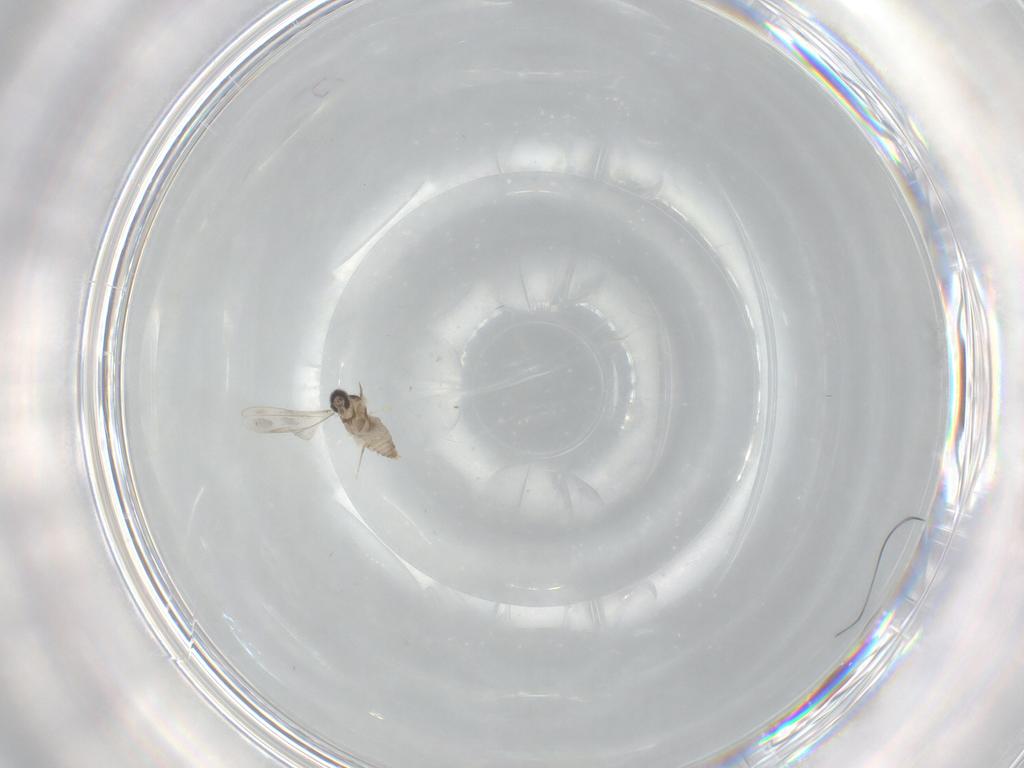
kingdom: Animalia
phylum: Arthropoda
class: Insecta
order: Diptera
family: Cecidomyiidae
